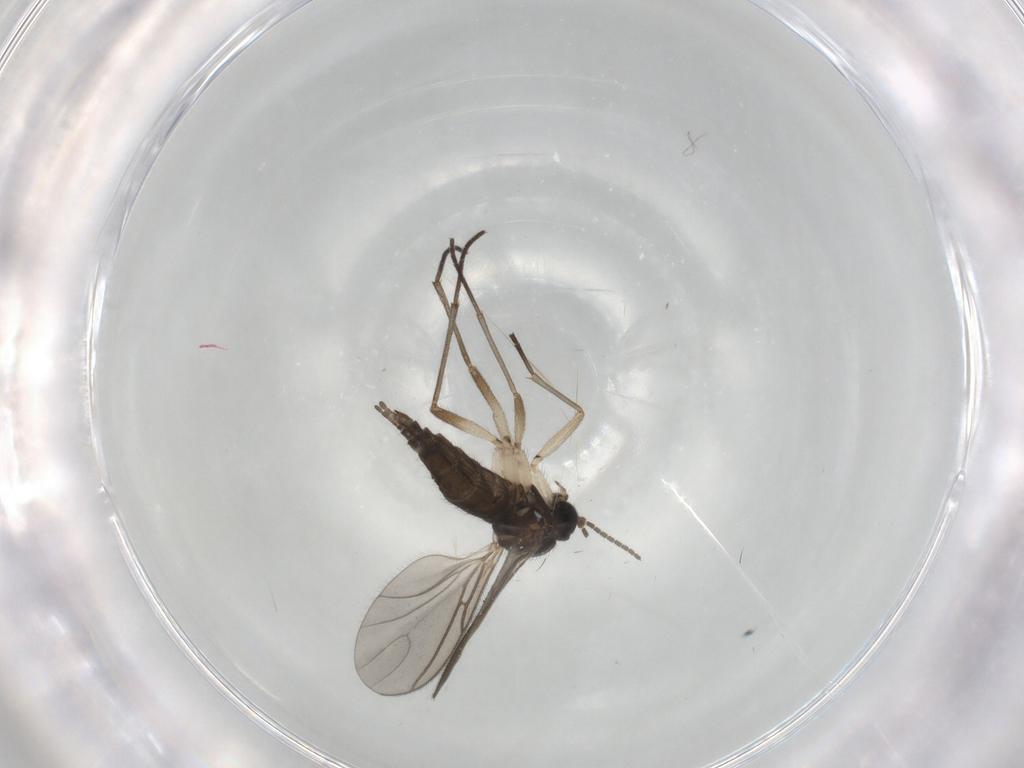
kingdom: Animalia
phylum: Arthropoda
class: Insecta
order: Diptera
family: Sciaridae
